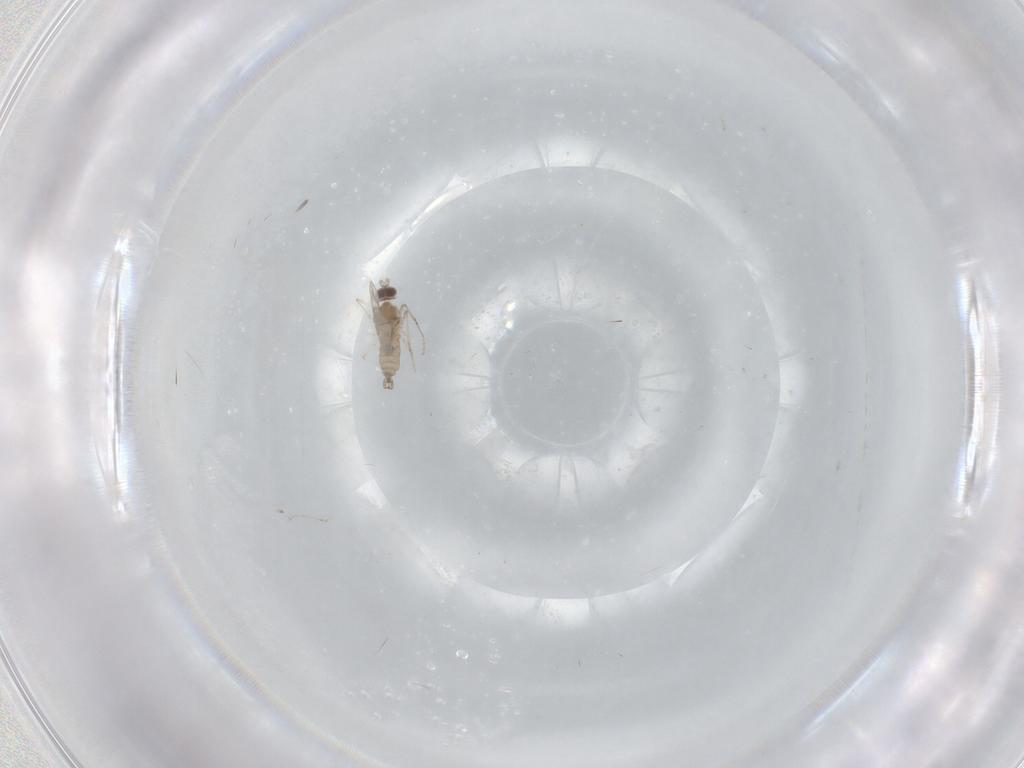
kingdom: Animalia
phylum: Arthropoda
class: Insecta
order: Diptera
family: Cecidomyiidae
